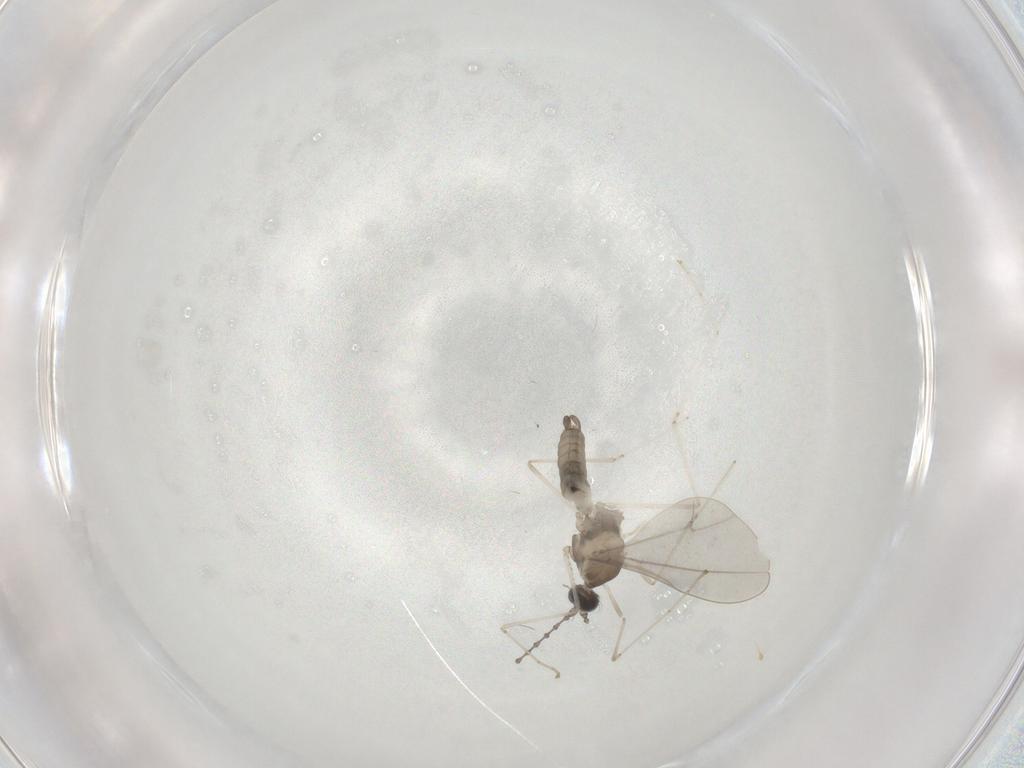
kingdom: Animalia
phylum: Arthropoda
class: Insecta
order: Diptera
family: Cecidomyiidae
